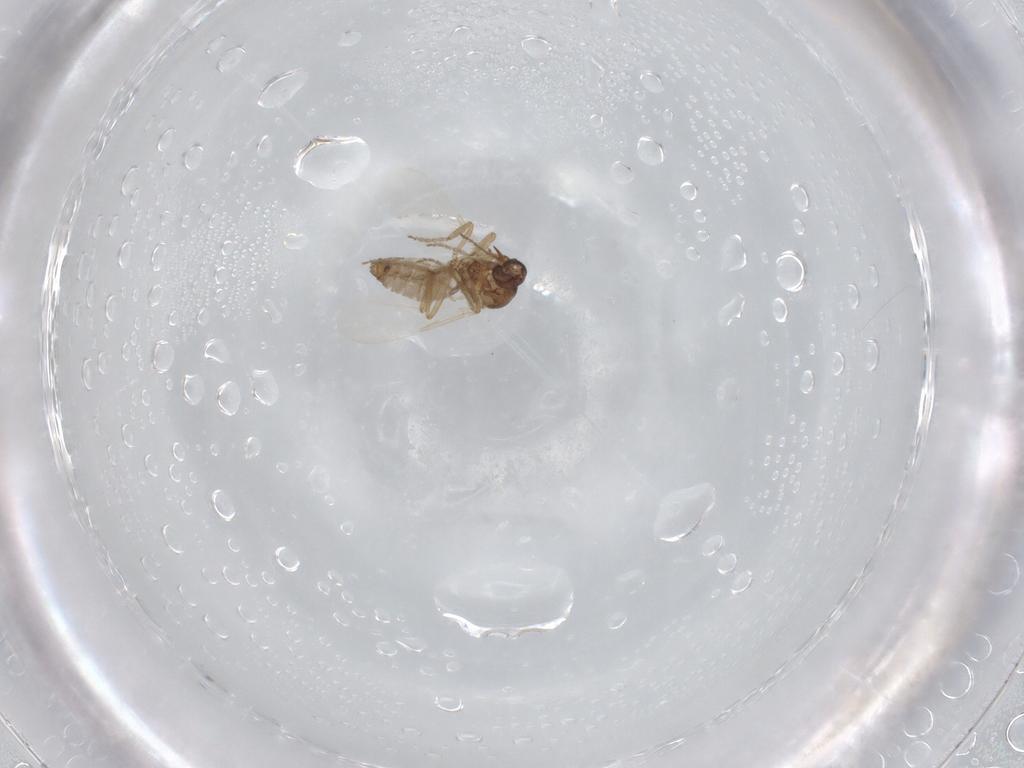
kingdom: Animalia
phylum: Arthropoda
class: Insecta
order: Diptera
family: Ceratopogonidae
